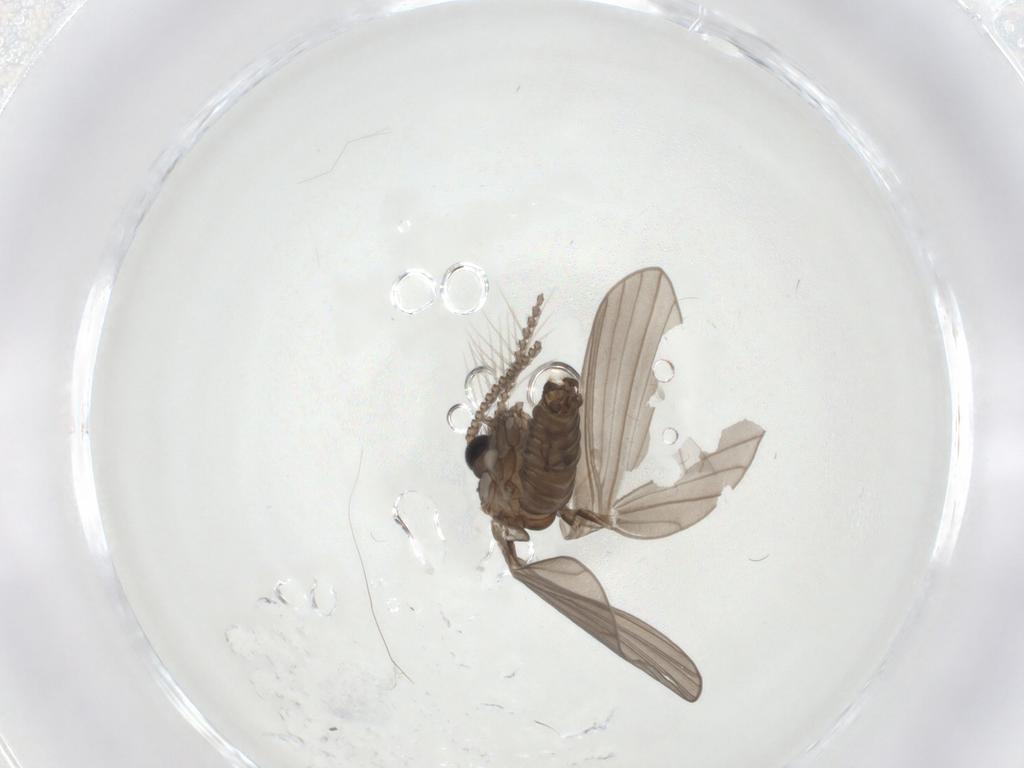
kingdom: Animalia
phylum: Arthropoda
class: Insecta
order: Diptera
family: Psychodidae
